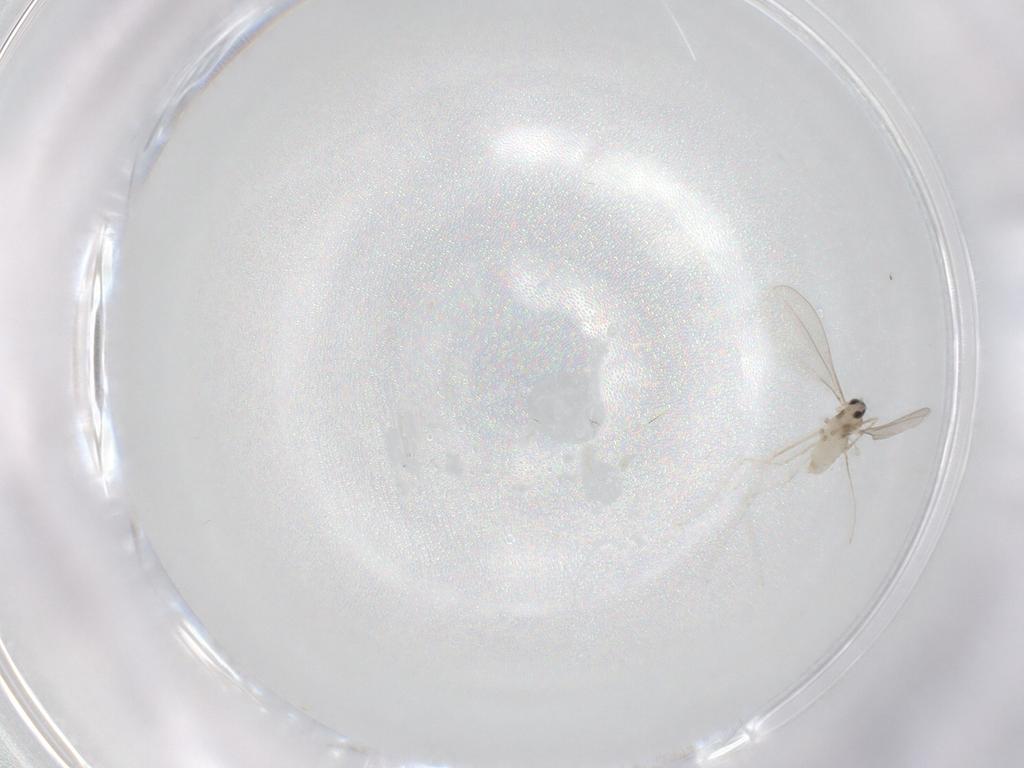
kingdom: Animalia
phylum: Arthropoda
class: Insecta
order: Diptera
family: Cecidomyiidae
